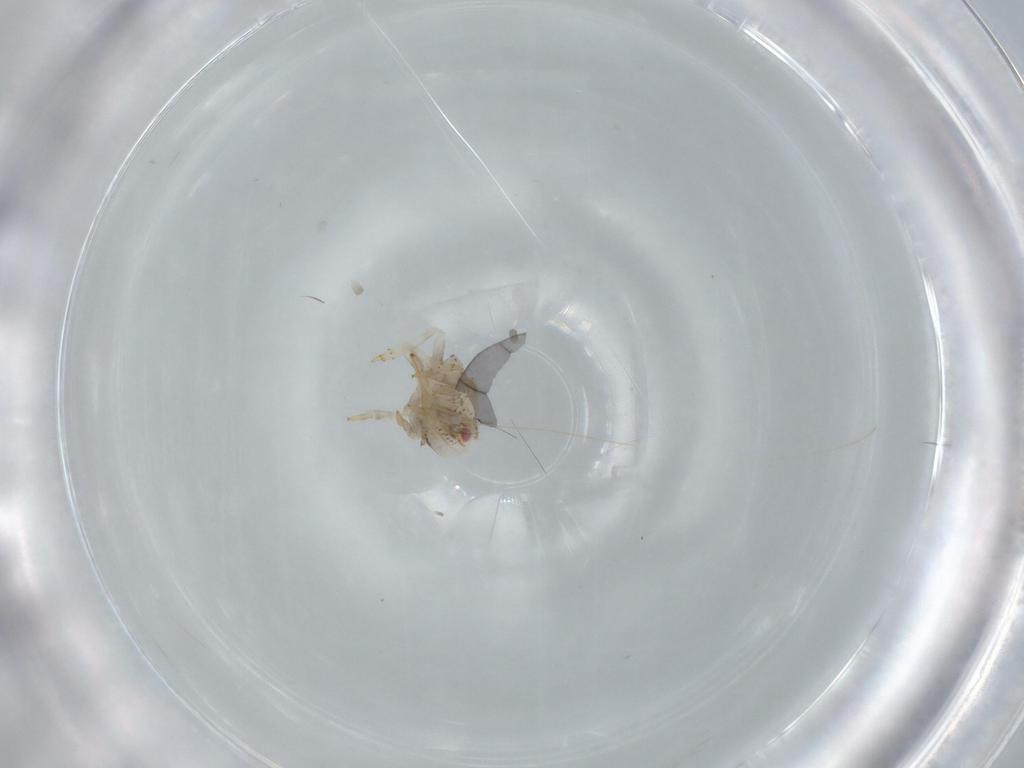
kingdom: Animalia
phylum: Arthropoda
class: Insecta
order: Hemiptera
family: Acanaloniidae
